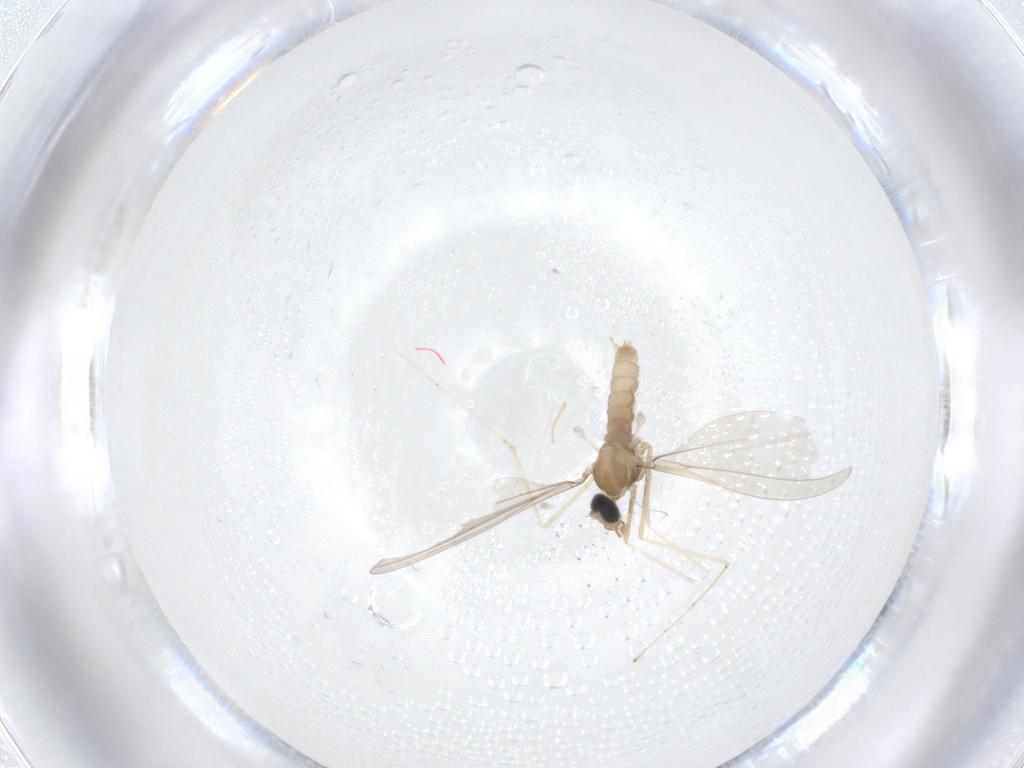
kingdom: Animalia
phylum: Arthropoda
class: Insecta
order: Diptera
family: Cecidomyiidae
